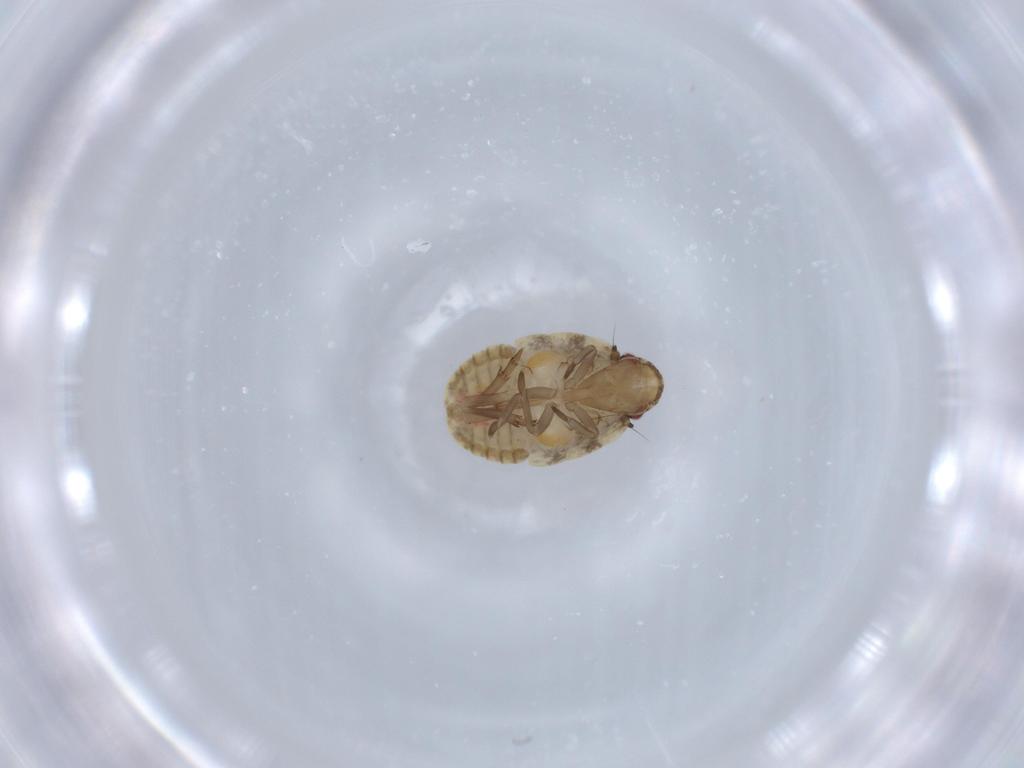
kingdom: Animalia
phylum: Arthropoda
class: Insecta
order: Hemiptera
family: Flatidae
